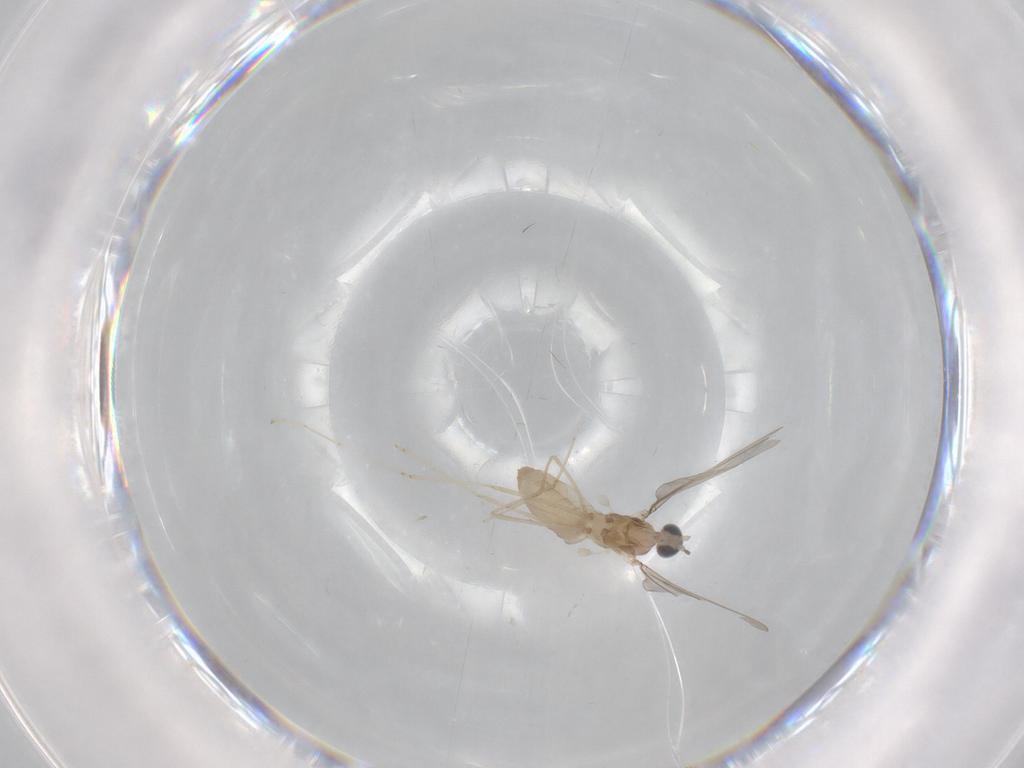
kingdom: Animalia
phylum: Arthropoda
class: Insecta
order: Diptera
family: Cecidomyiidae
